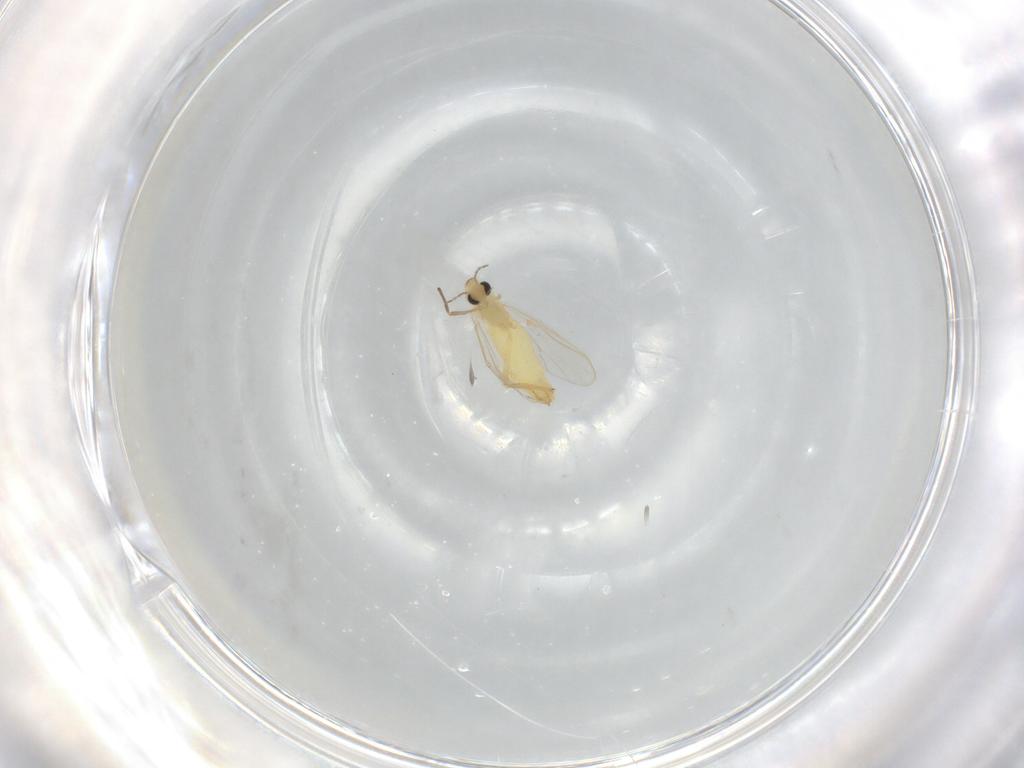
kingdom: Animalia
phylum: Arthropoda
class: Insecta
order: Diptera
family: Chironomidae
